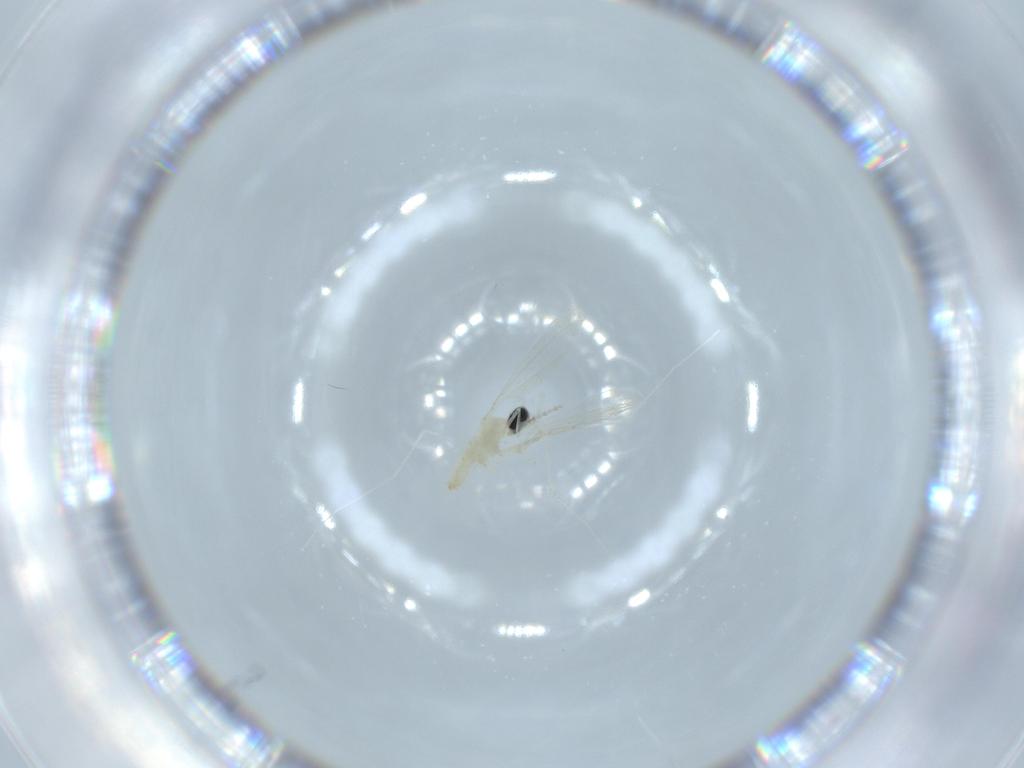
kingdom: Animalia
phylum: Arthropoda
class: Insecta
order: Diptera
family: Cecidomyiidae
